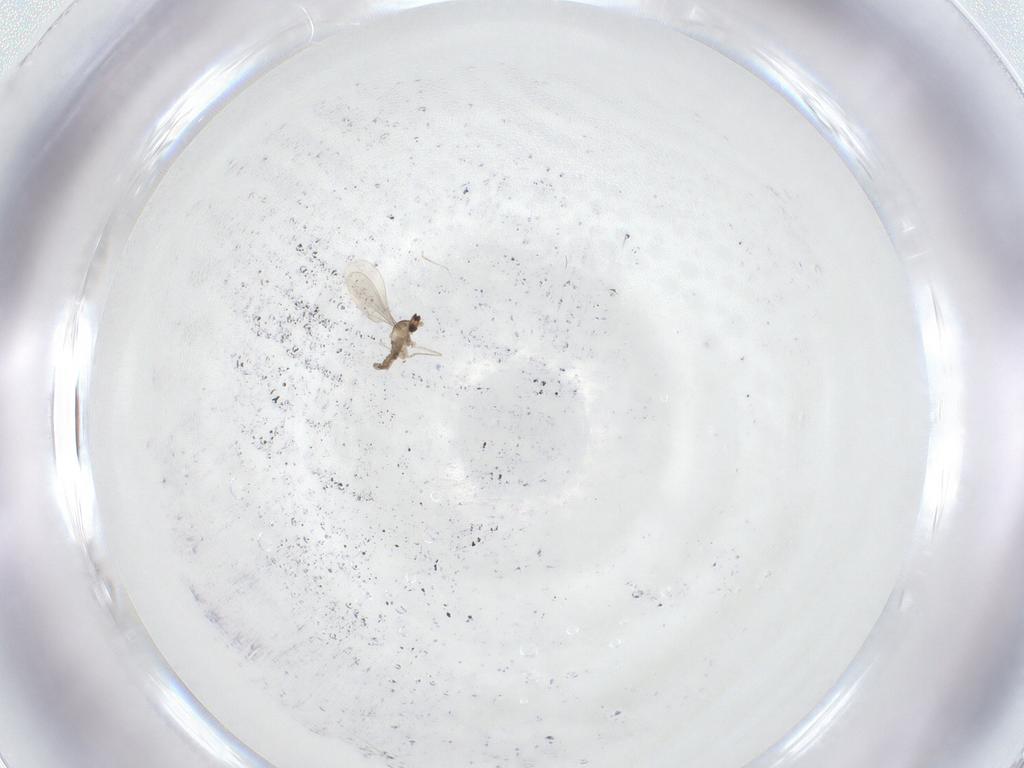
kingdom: Animalia
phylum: Arthropoda
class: Insecta
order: Diptera
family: Cecidomyiidae
